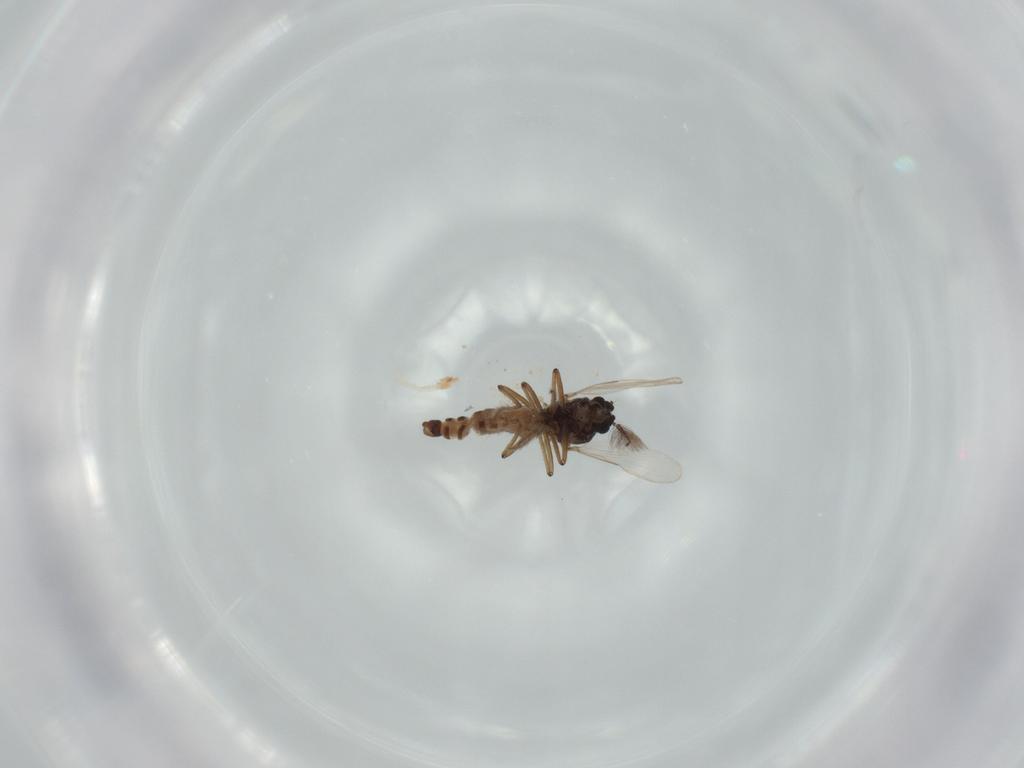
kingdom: Animalia
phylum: Arthropoda
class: Insecta
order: Diptera
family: Ceratopogonidae
